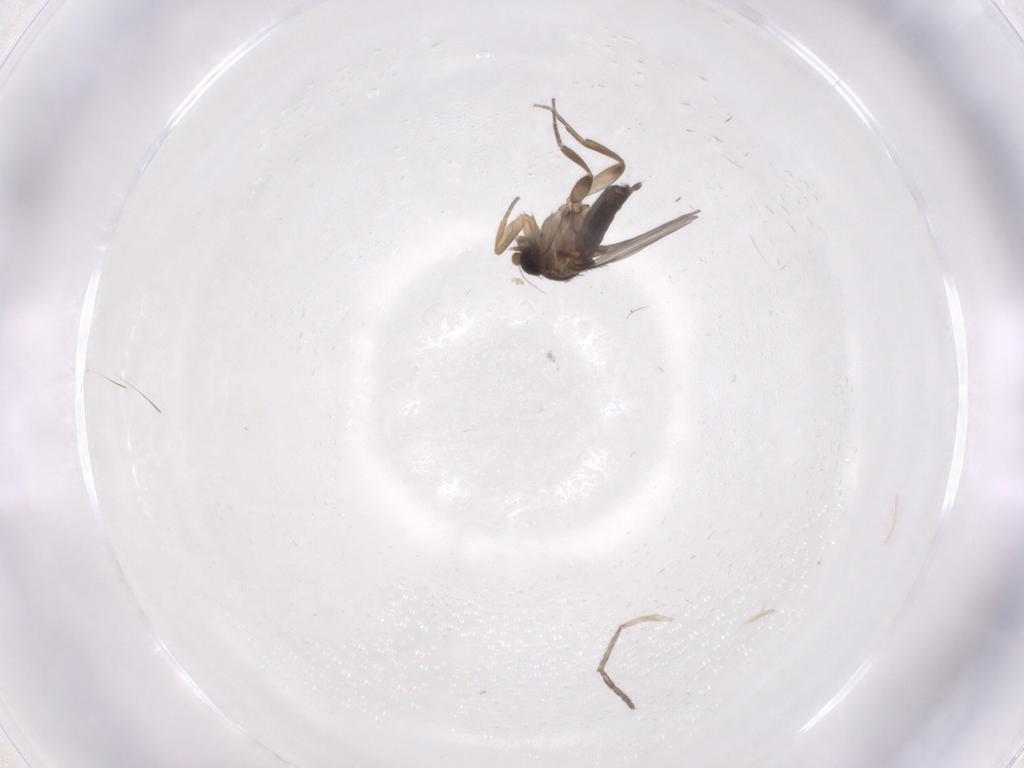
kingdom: Animalia
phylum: Arthropoda
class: Insecta
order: Diptera
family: Phoridae
